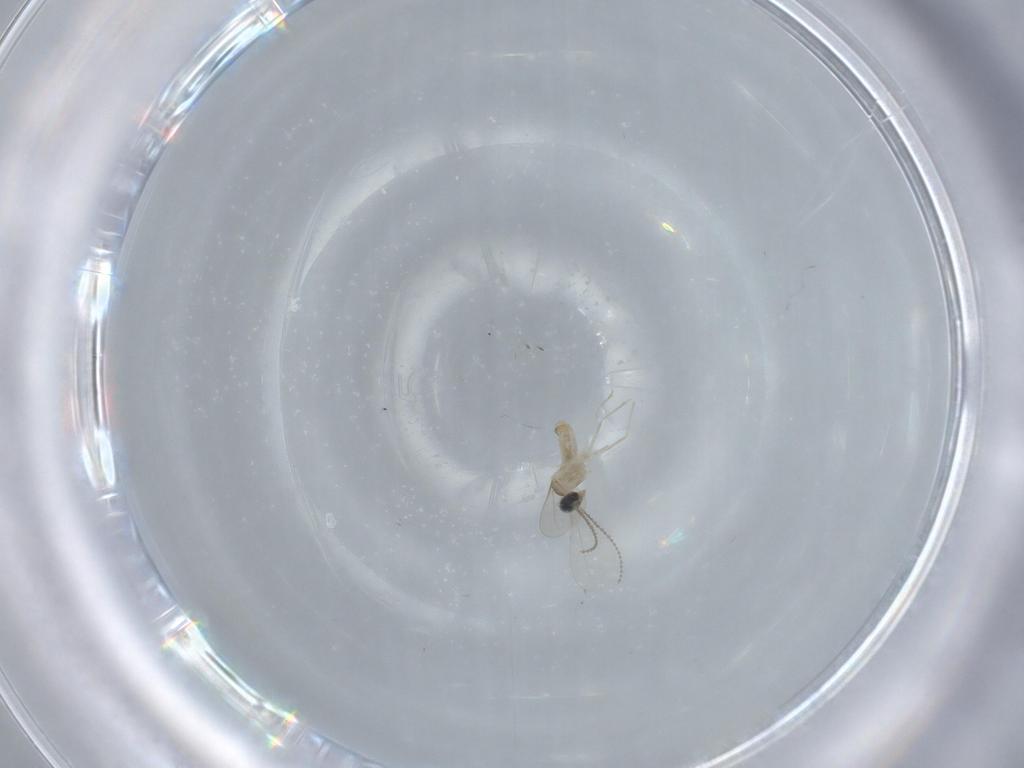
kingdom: Animalia
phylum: Arthropoda
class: Insecta
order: Diptera
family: Cecidomyiidae
